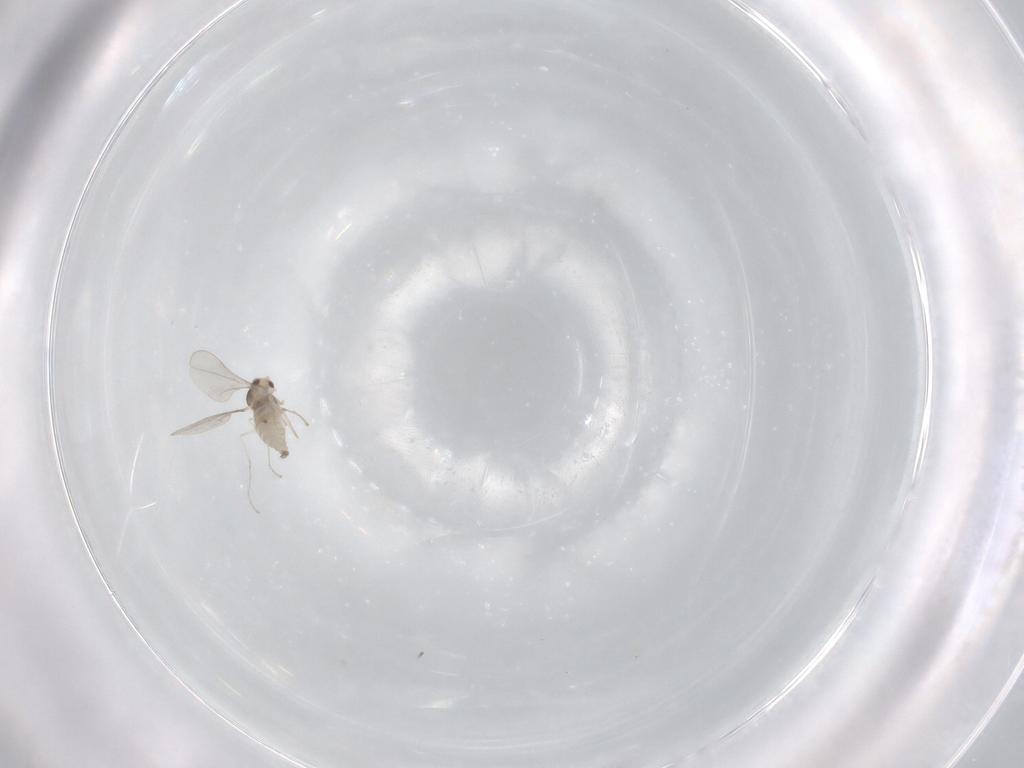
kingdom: Animalia
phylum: Arthropoda
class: Insecta
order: Diptera
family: Cecidomyiidae
